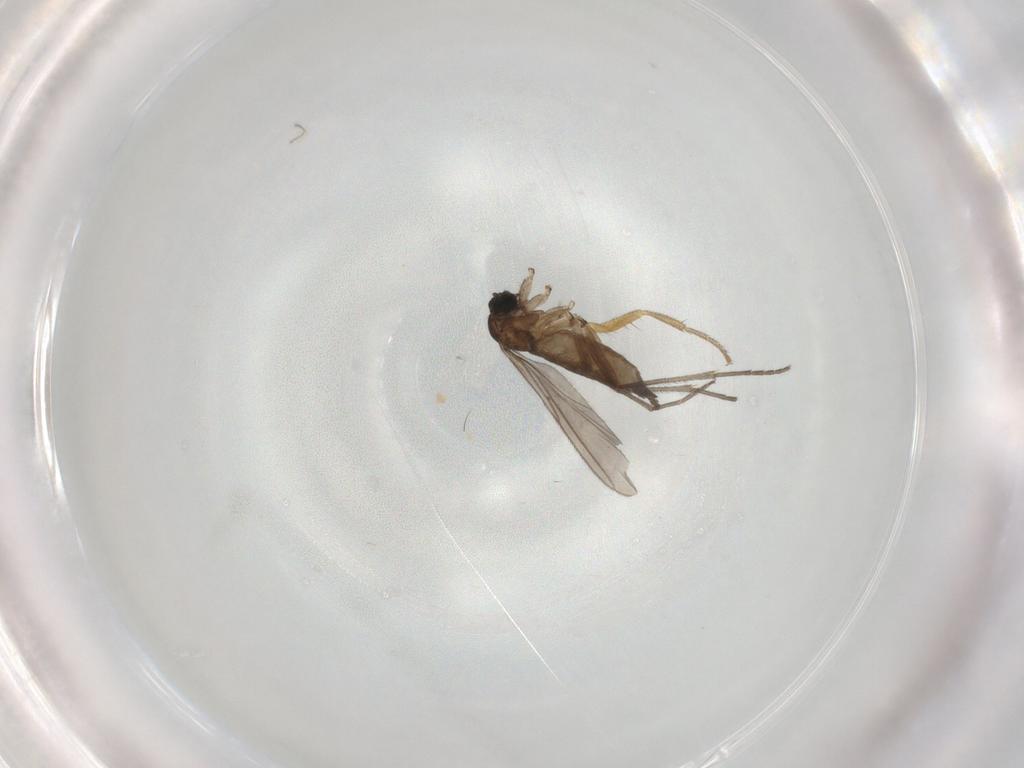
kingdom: Animalia
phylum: Arthropoda
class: Insecta
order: Diptera
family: Sciaridae
